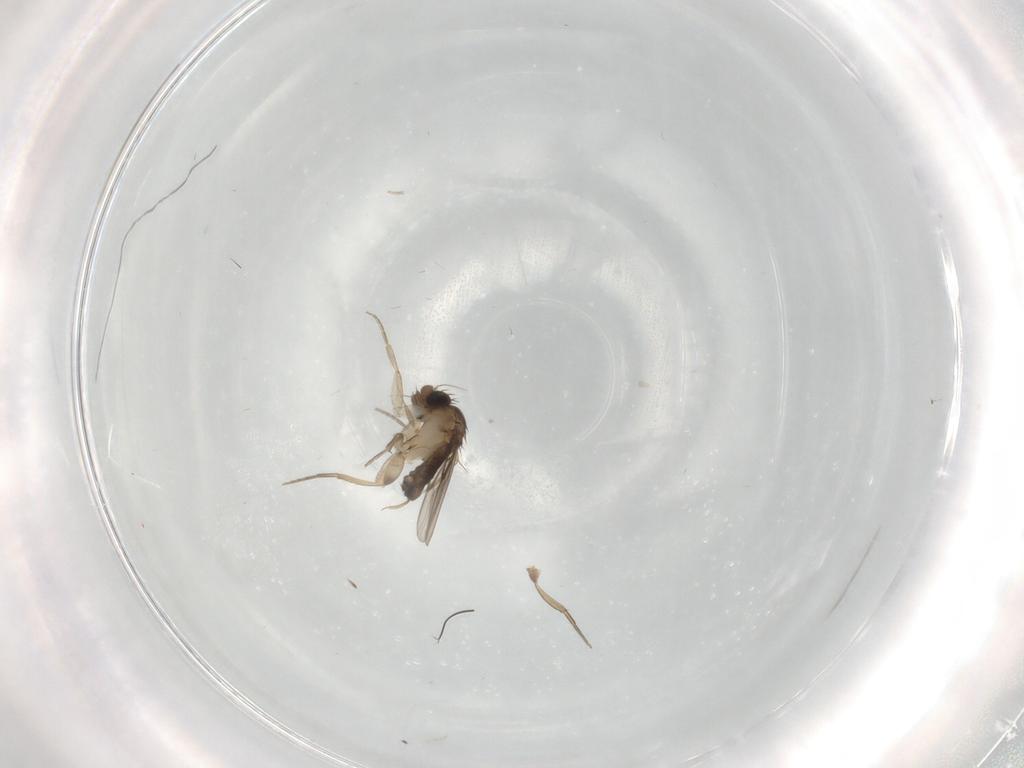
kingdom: Animalia
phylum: Arthropoda
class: Insecta
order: Diptera
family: Phoridae
